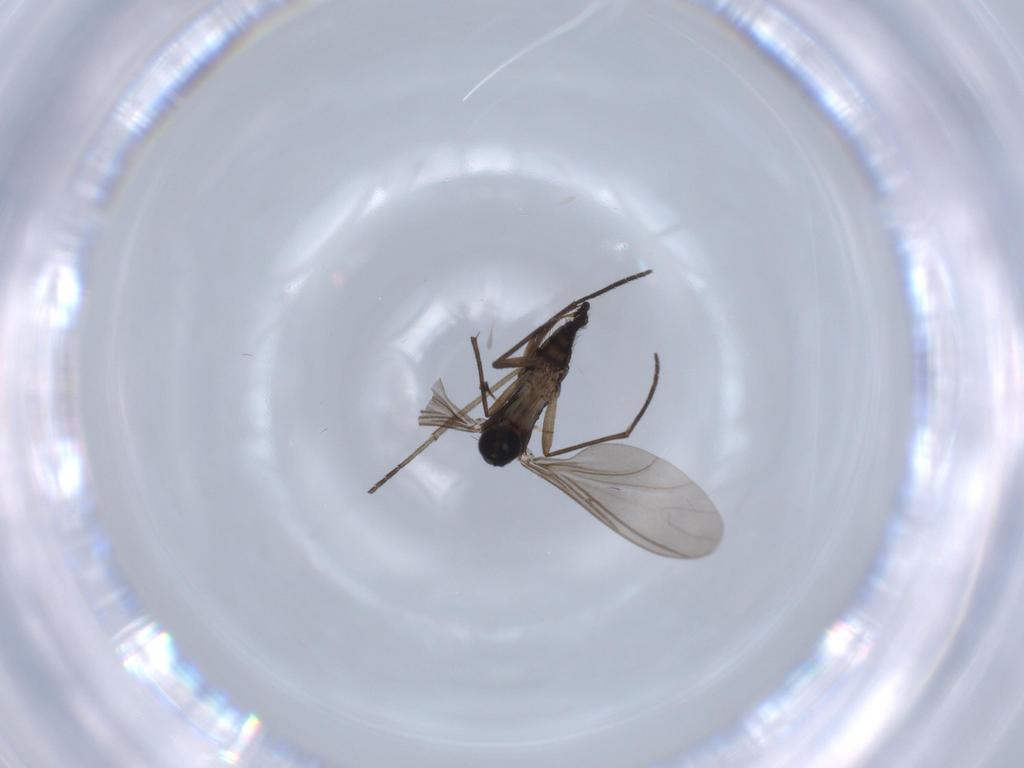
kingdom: Animalia
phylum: Arthropoda
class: Insecta
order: Diptera
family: Sciaridae
